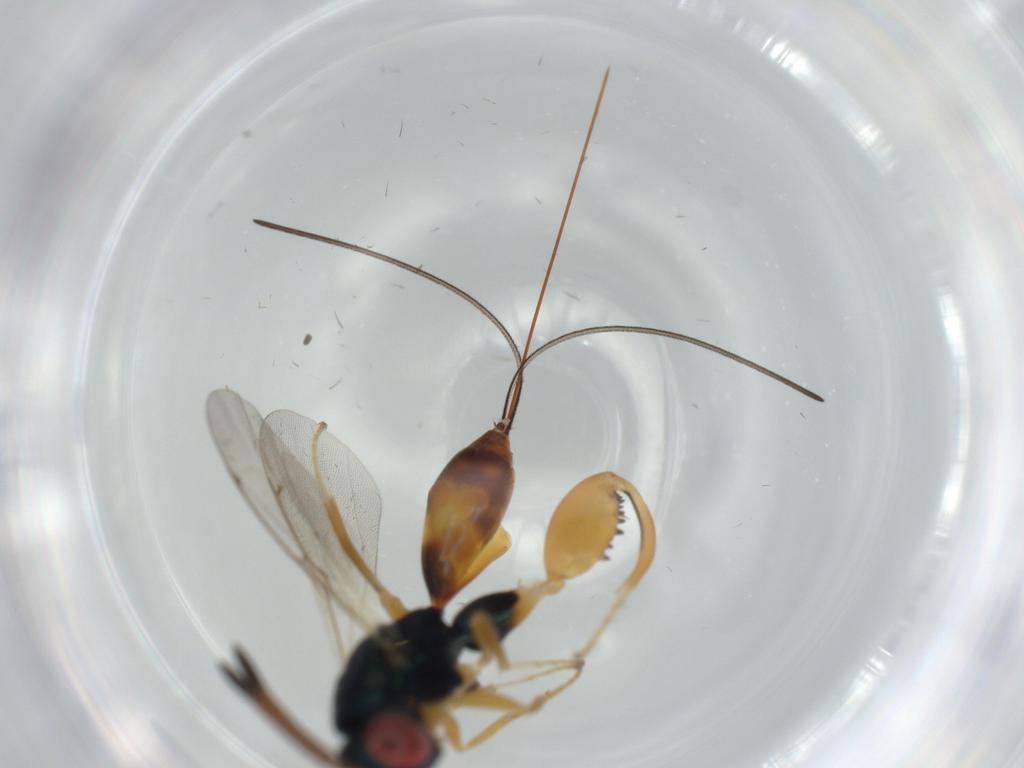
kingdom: Animalia
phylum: Arthropoda
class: Insecta
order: Hymenoptera
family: Torymidae
